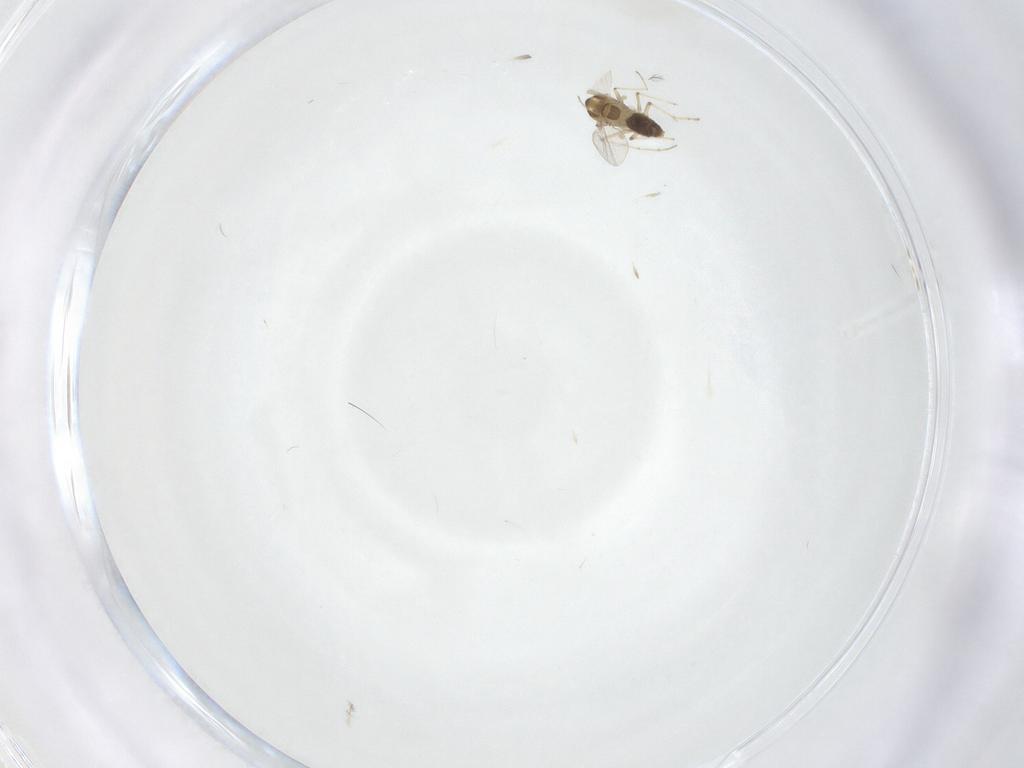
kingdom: Animalia
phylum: Arthropoda
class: Insecta
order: Diptera
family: Chironomidae
